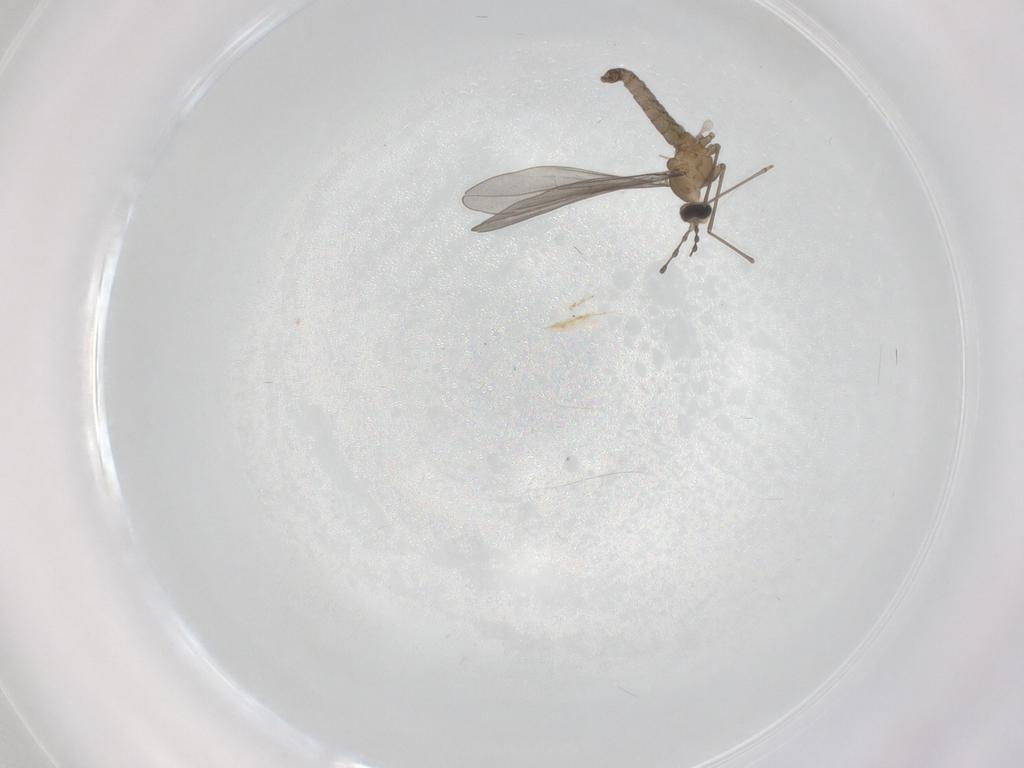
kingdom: Animalia
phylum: Arthropoda
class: Insecta
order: Diptera
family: Cecidomyiidae
